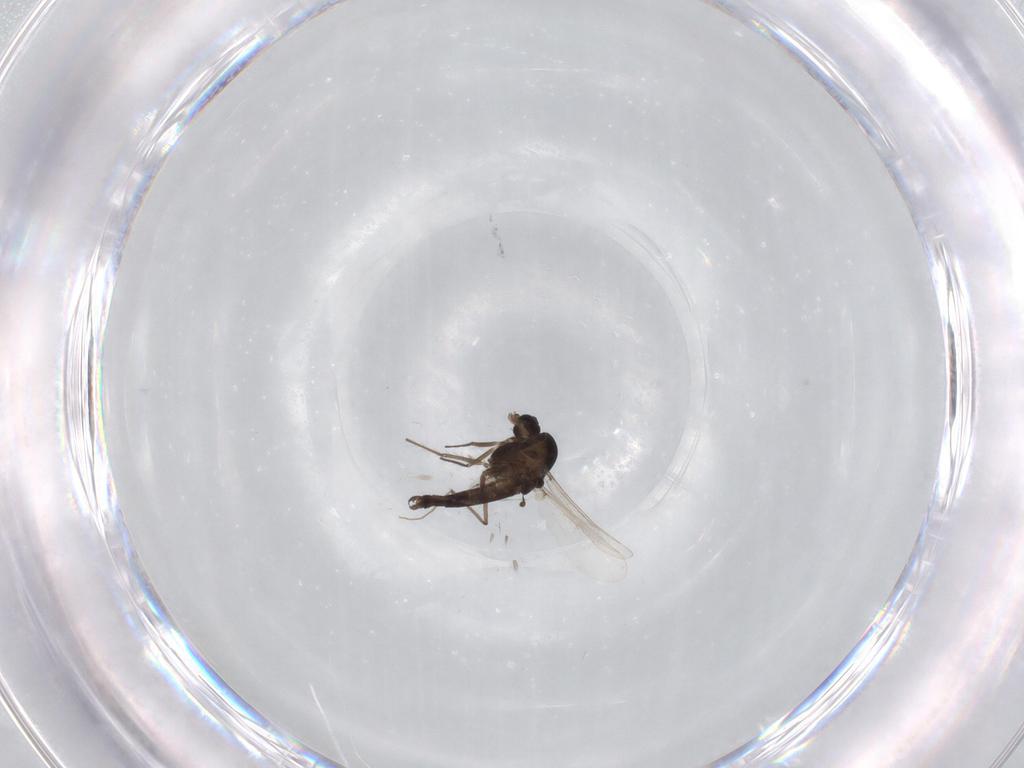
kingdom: Animalia
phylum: Arthropoda
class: Insecta
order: Diptera
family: Chironomidae
